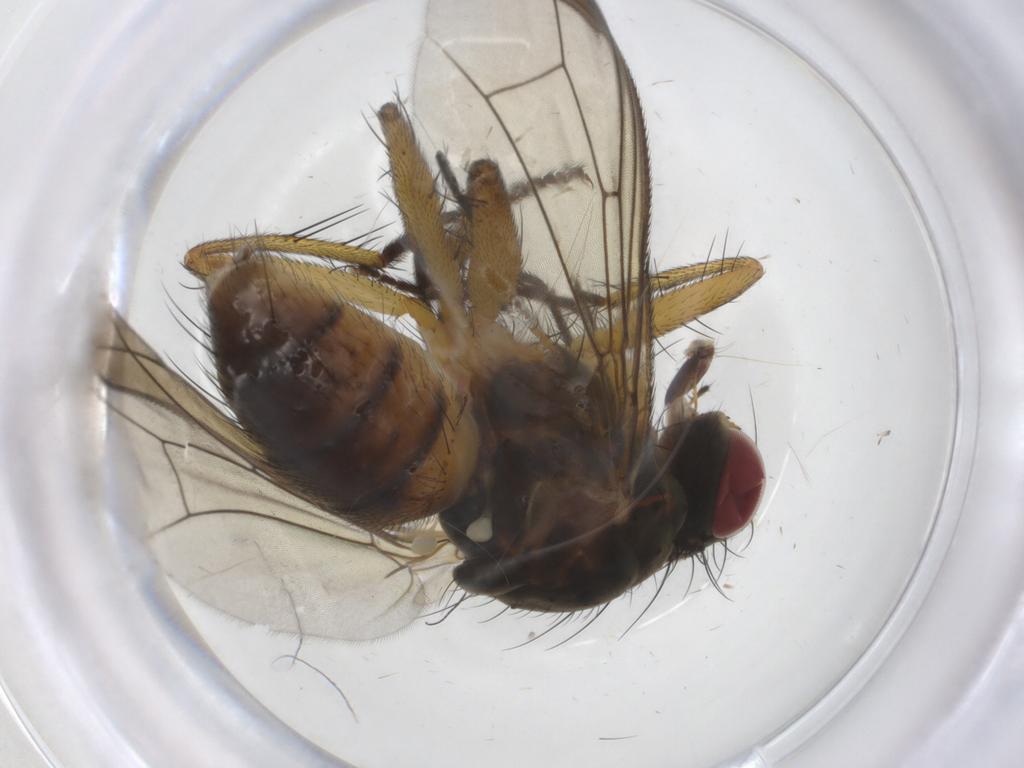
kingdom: Animalia
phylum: Arthropoda
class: Insecta
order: Diptera
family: Muscidae
